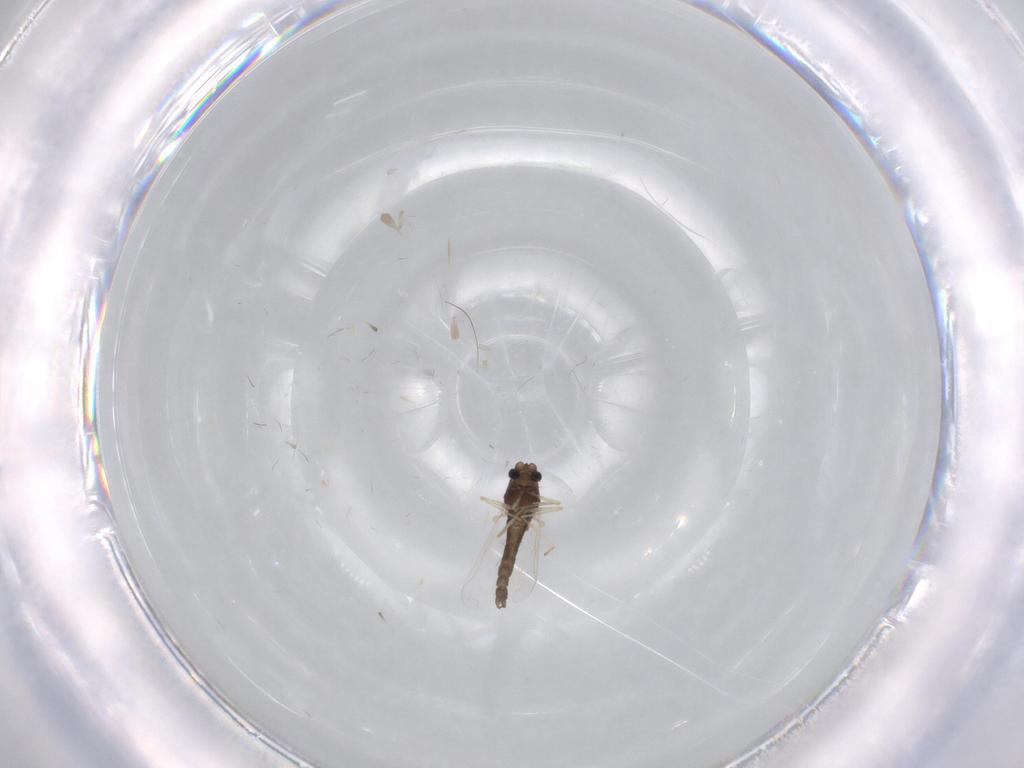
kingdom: Animalia
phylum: Arthropoda
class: Insecta
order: Diptera
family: Chironomidae
